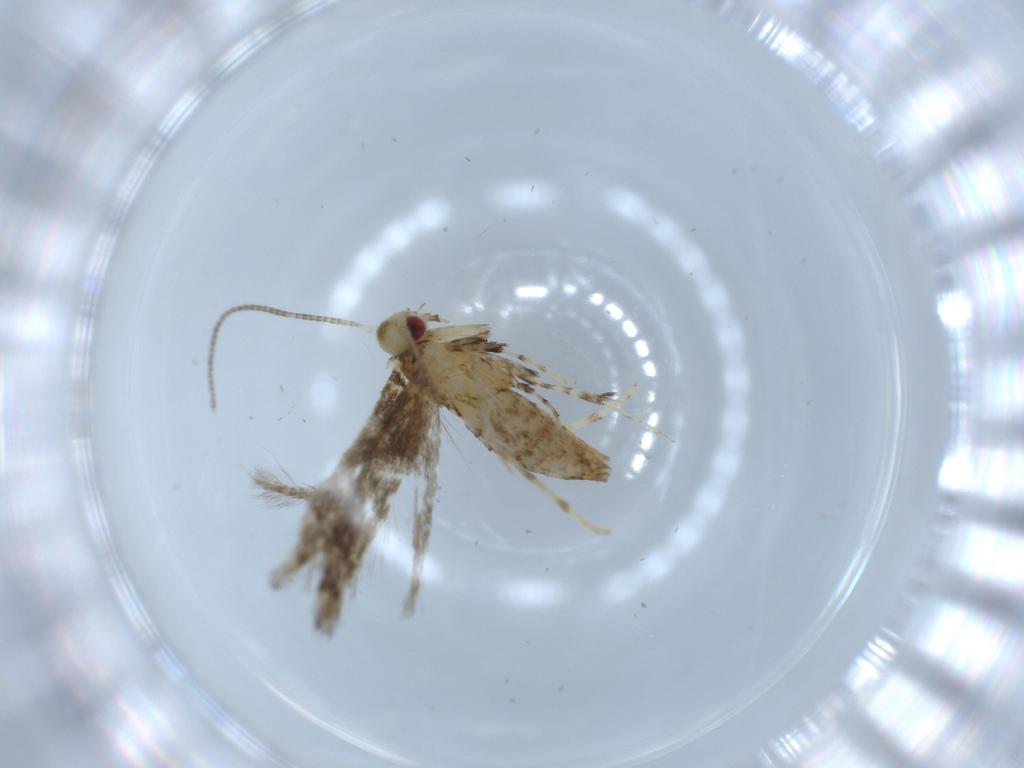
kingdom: Animalia
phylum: Arthropoda
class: Insecta
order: Lepidoptera
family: Gracillariidae
